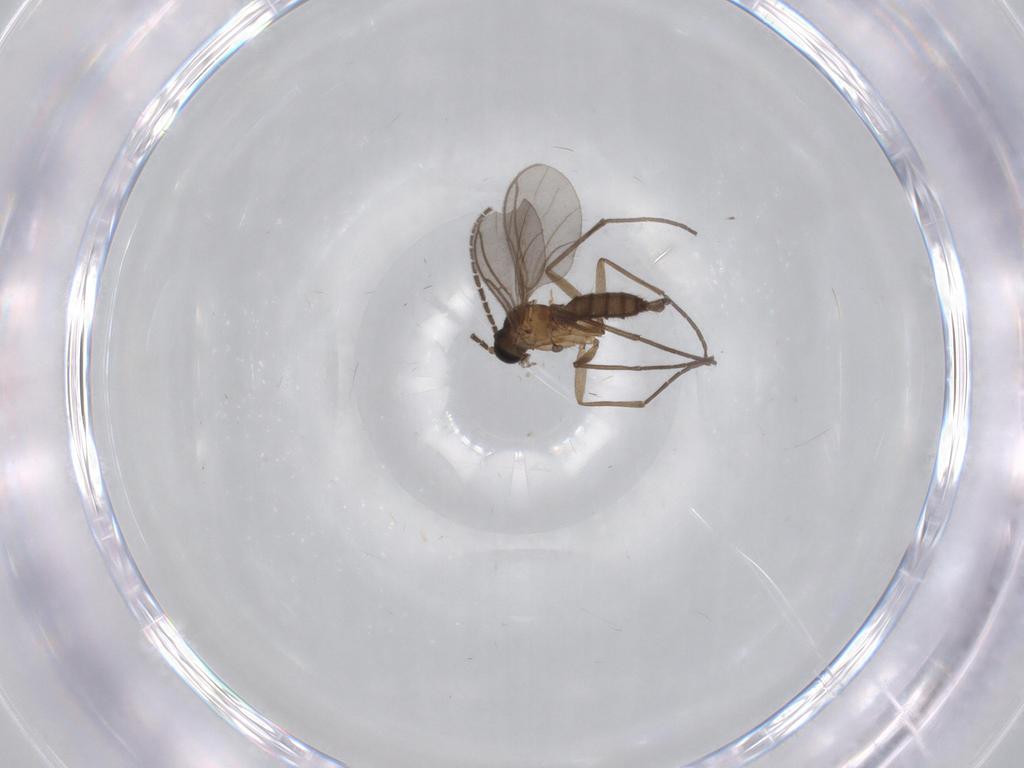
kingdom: Animalia
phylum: Arthropoda
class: Insecta
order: Diptera
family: Sciaridae
